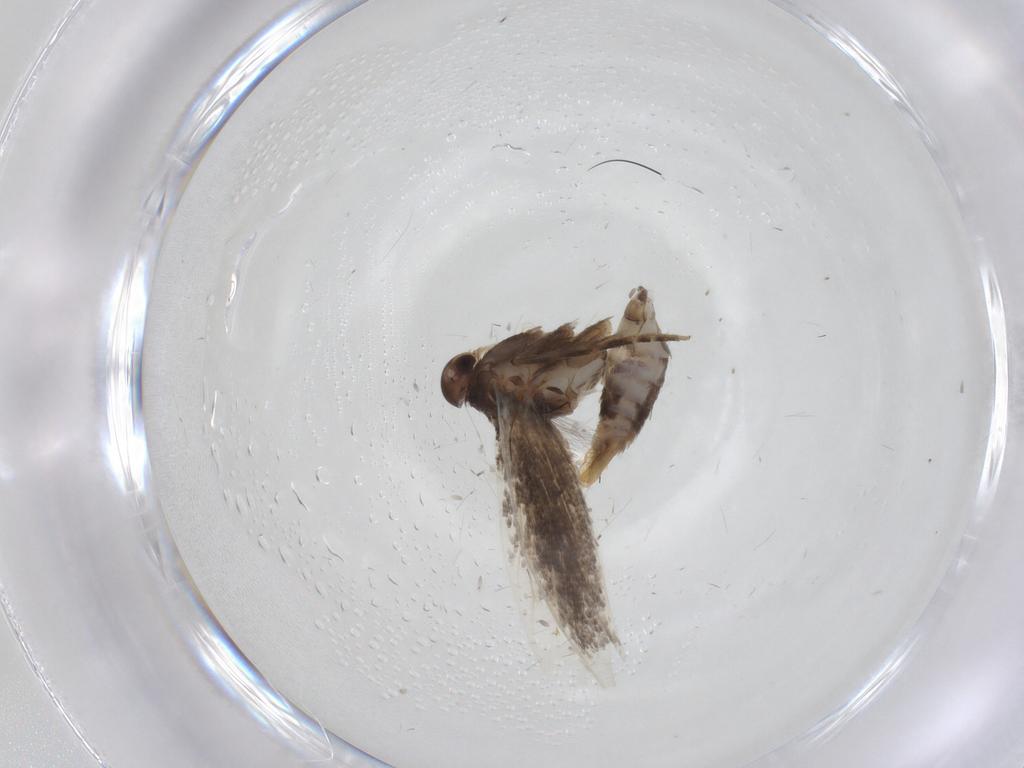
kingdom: Animalia
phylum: Arthropoda
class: Insecta
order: Lepidoptera
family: Elachistidae
